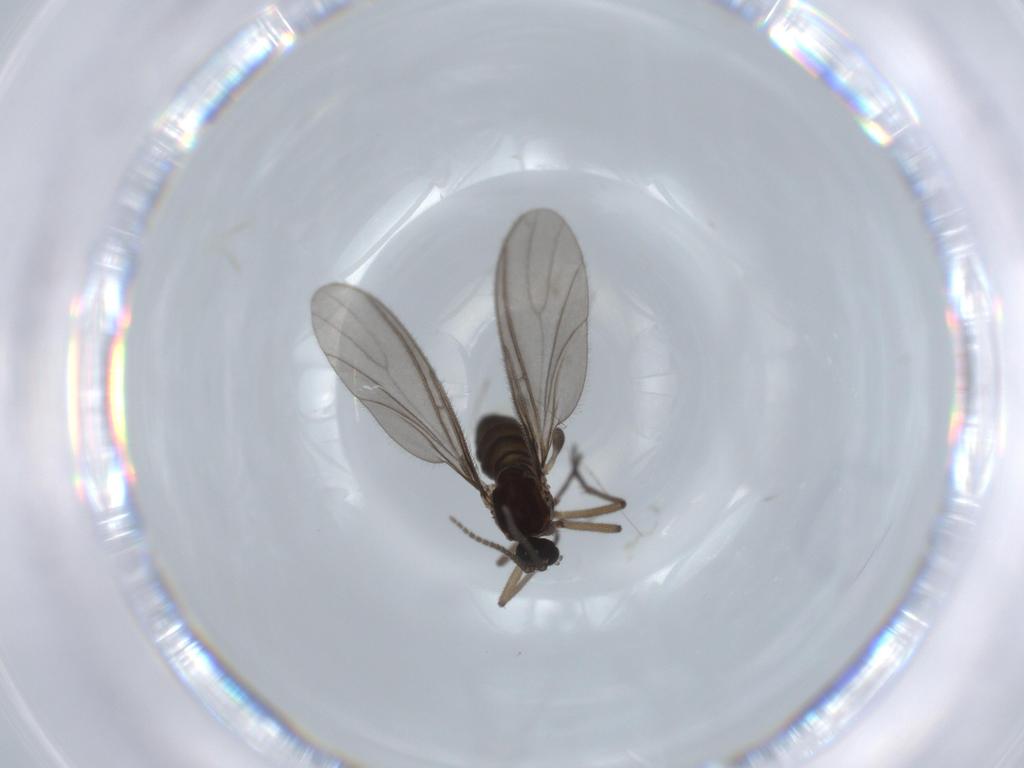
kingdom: Animalia
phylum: Arthropoda
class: Insecta
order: Diptera
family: Sciaridae
